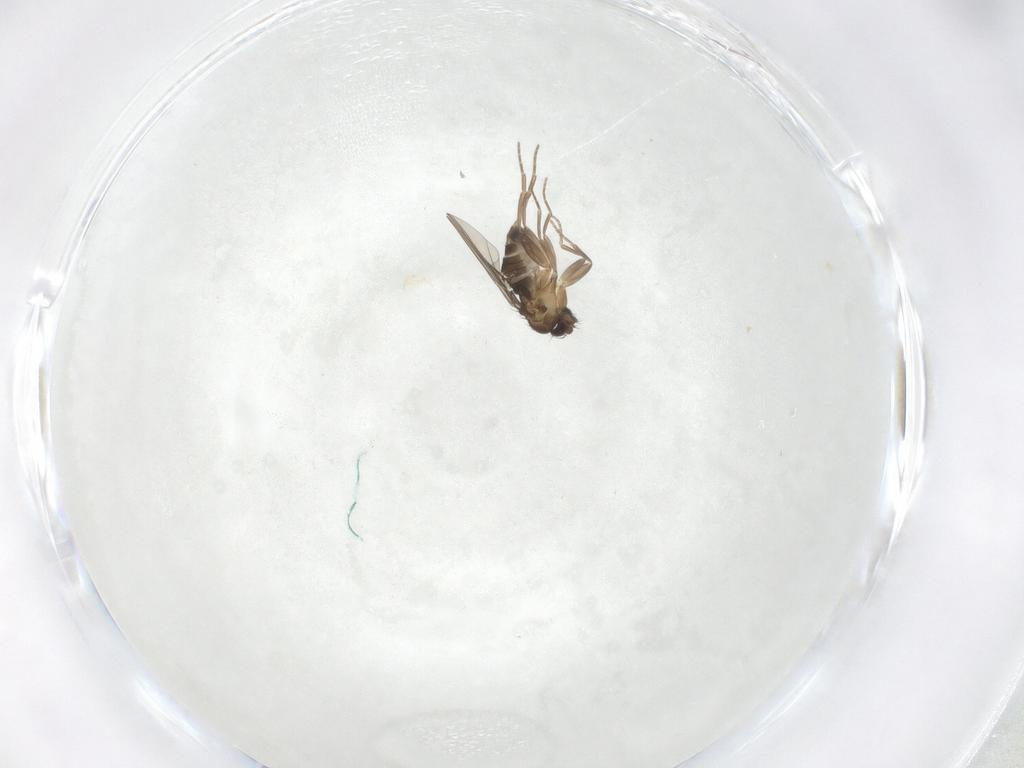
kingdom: Animalia
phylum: Arthropoda
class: Insecta
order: Diptera
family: Phoridae
